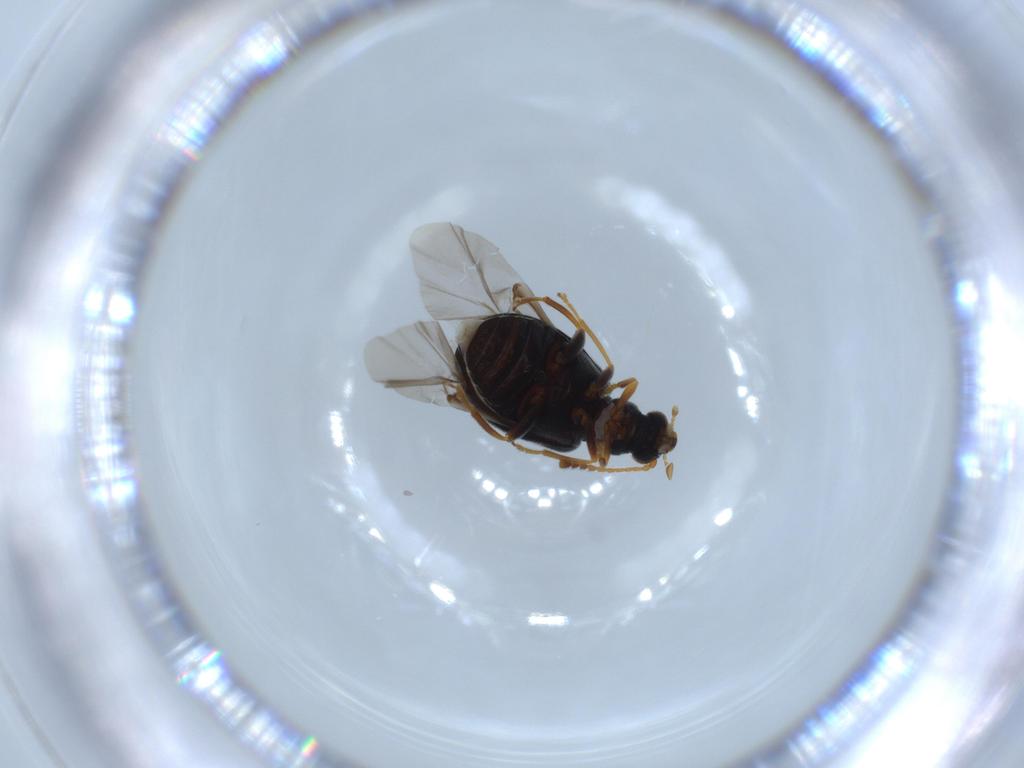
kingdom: Animalia
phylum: Arthropoda
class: Insecta
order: Coleoptera
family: Aderidae
